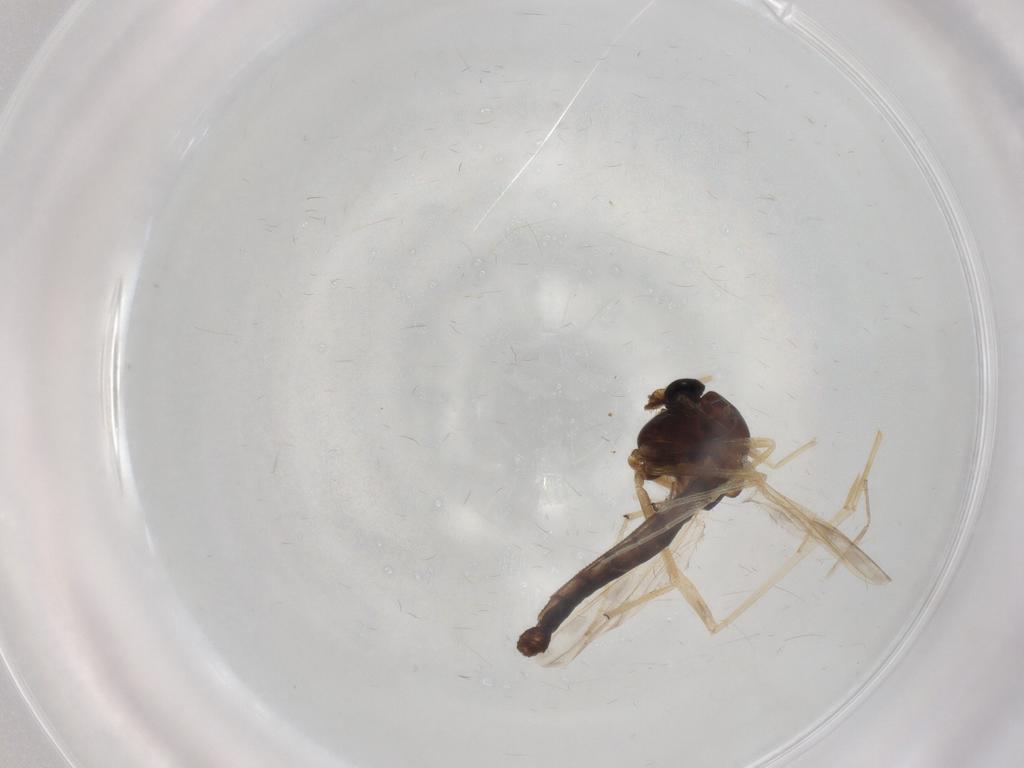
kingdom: Animalia
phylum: Arthropoda
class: Insecta
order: Diptera
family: Chironomidae
